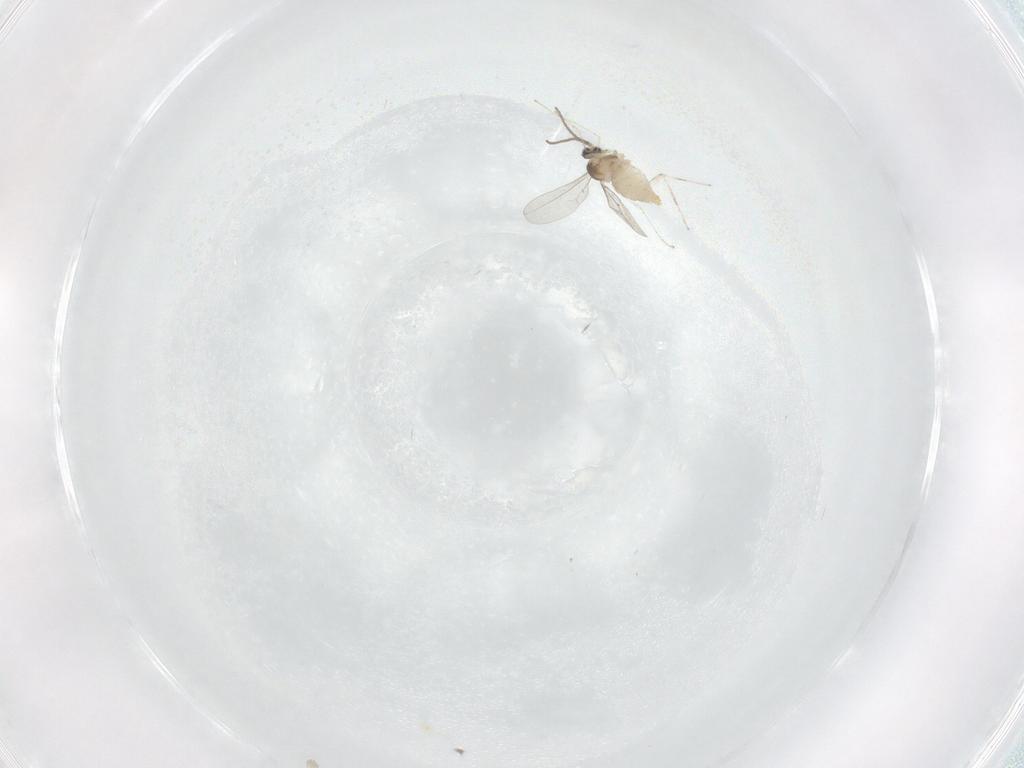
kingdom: Animalia
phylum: Arthropoda
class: Insecta
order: Diptera
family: Cecidomyiidae
